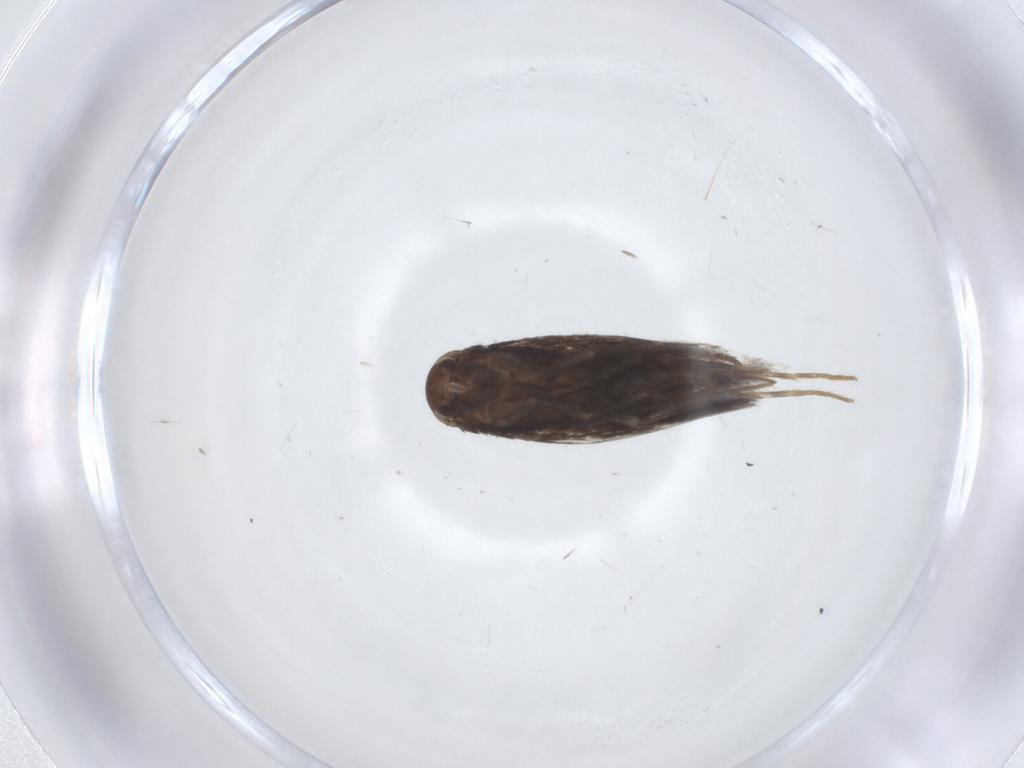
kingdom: Animalia
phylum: Arthropoda
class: Insecta
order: Lepidoptera
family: Elachistidae
